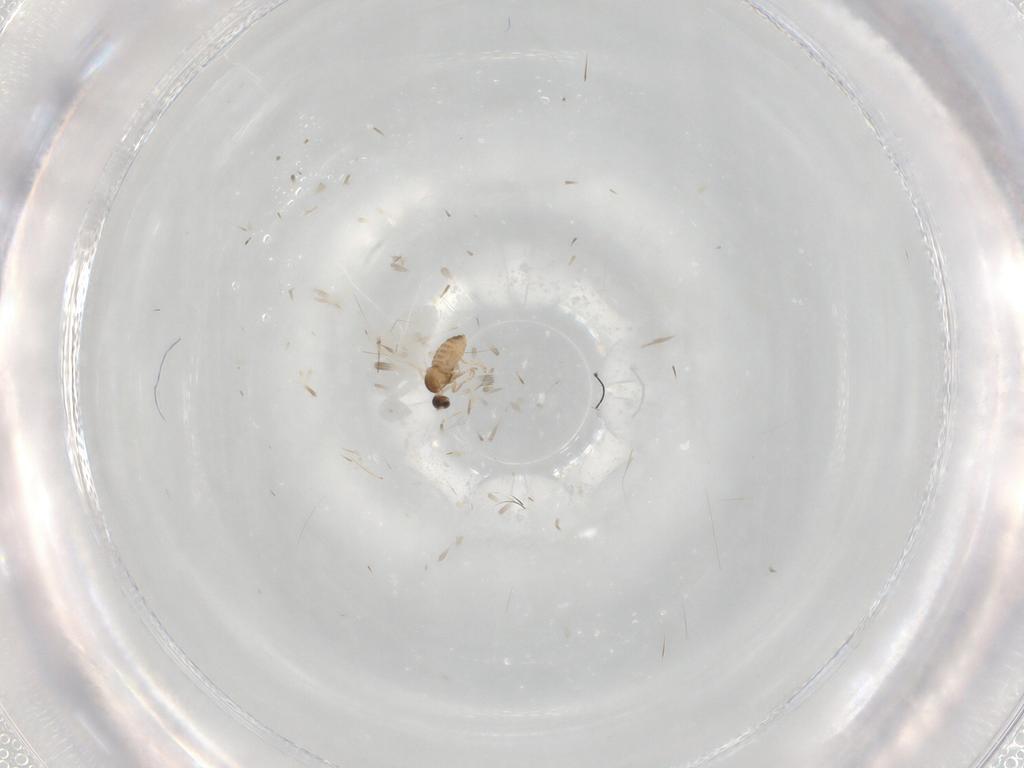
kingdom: Animalia
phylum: Arthropoda
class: Insecta
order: Diptera
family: Cecidomyiidae
